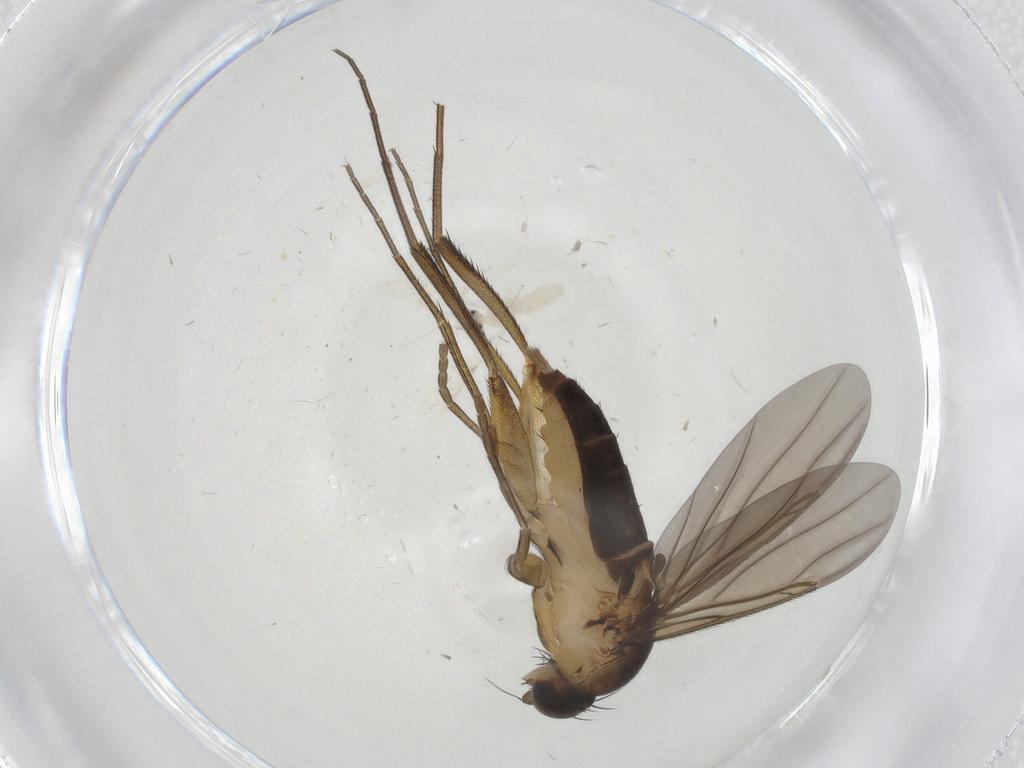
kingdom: Animalia
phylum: Arthropoda
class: Insecta
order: Diptera
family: Cecidomyiidae
